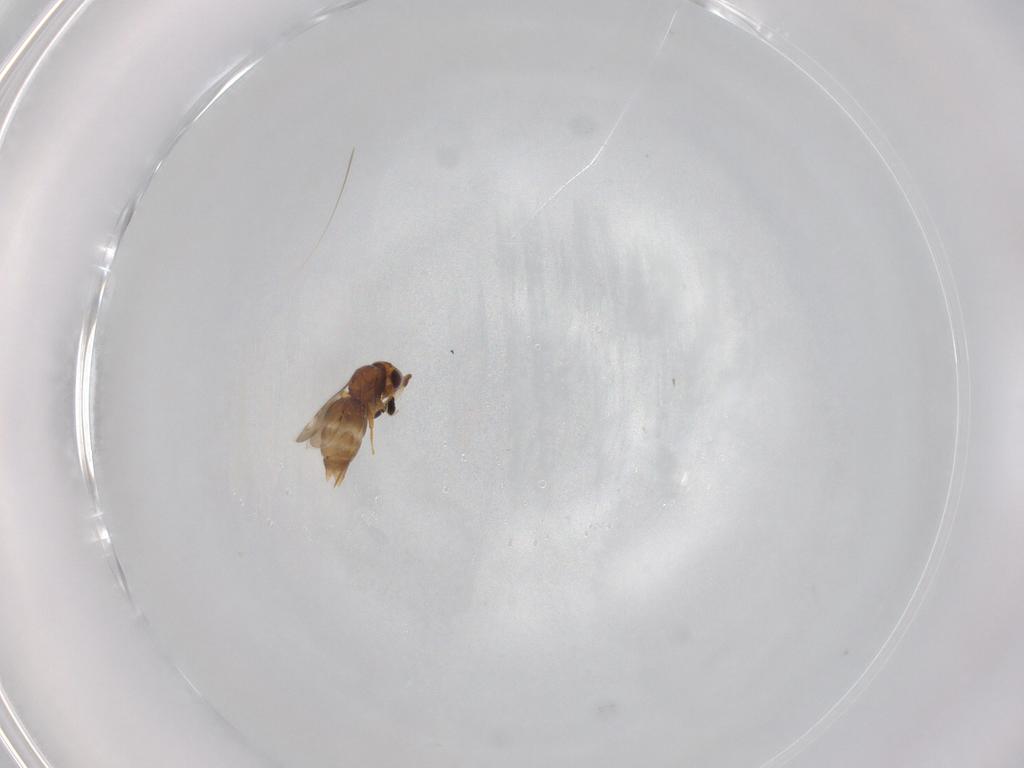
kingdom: Animalia
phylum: Arthropoda
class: Insecta
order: Hymenoptera
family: Ceraphronidae
